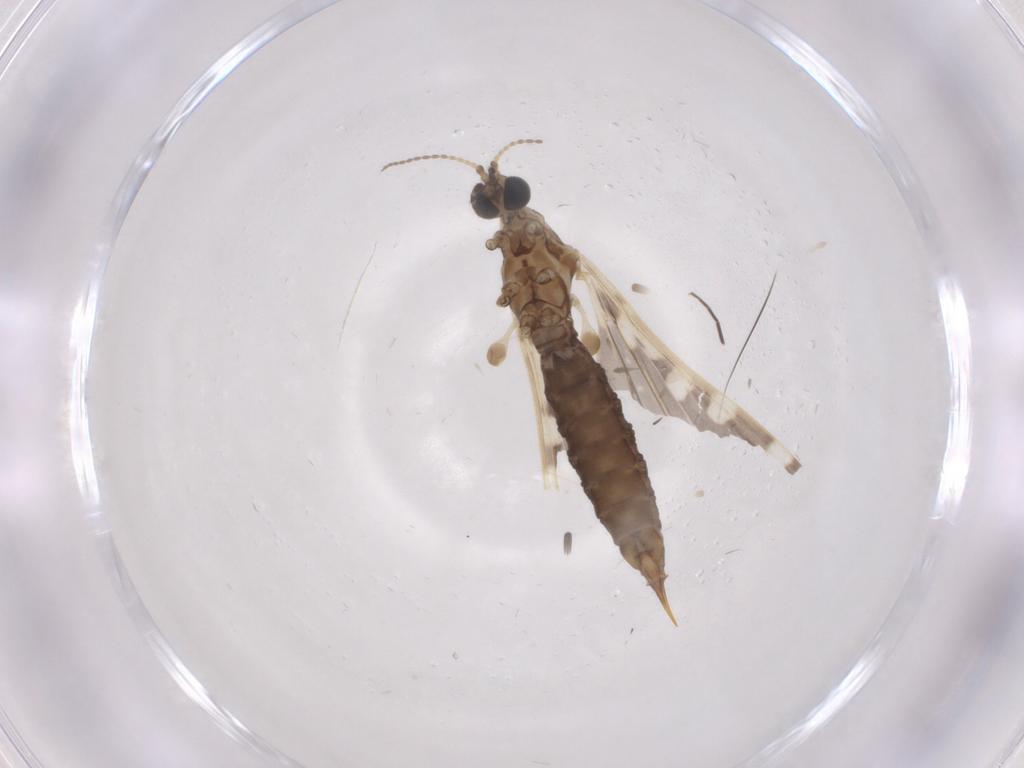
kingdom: Animalia
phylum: Arthropoda
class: Insecta
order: Diptera
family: Limoniidae
